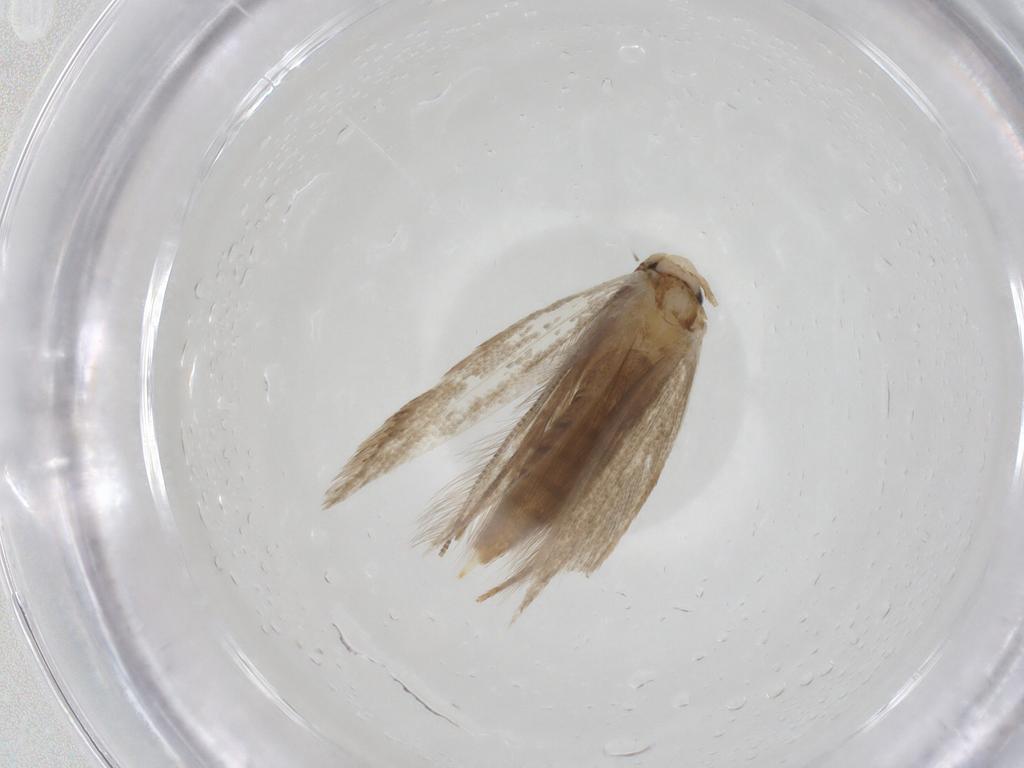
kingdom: Animalia
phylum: Arthropoda
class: Insecta
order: Lepidoptera
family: Tineidae
